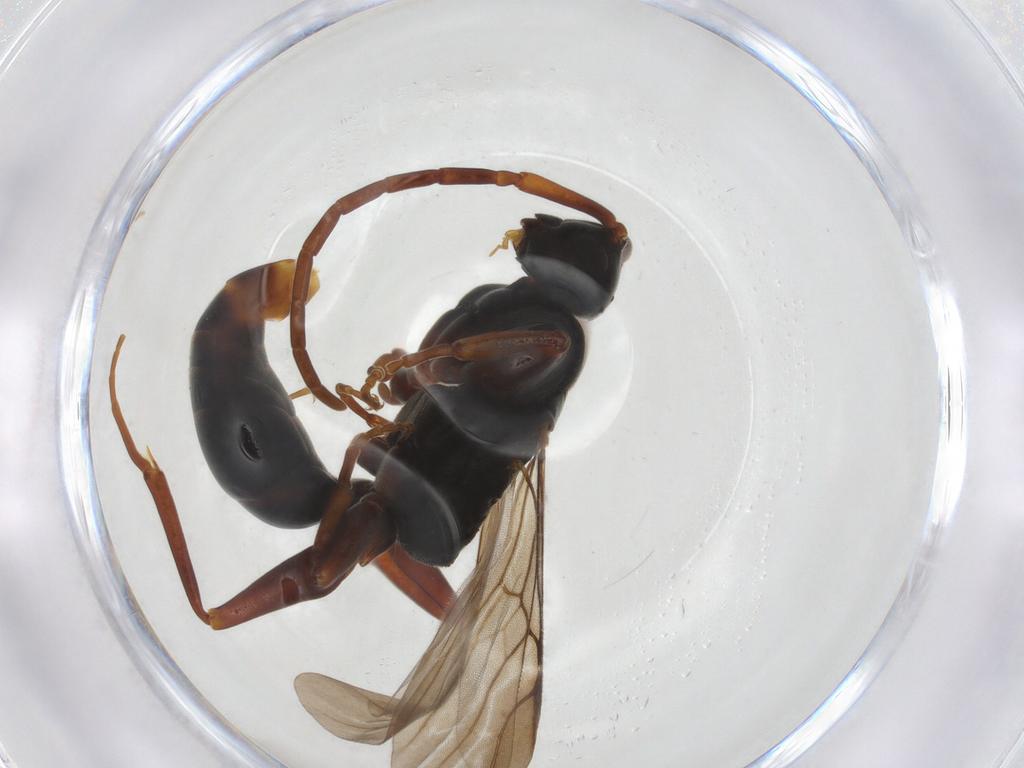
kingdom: Animalia
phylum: Arthropoda
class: Insecta
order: Hymenoptera
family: Embolemidae
